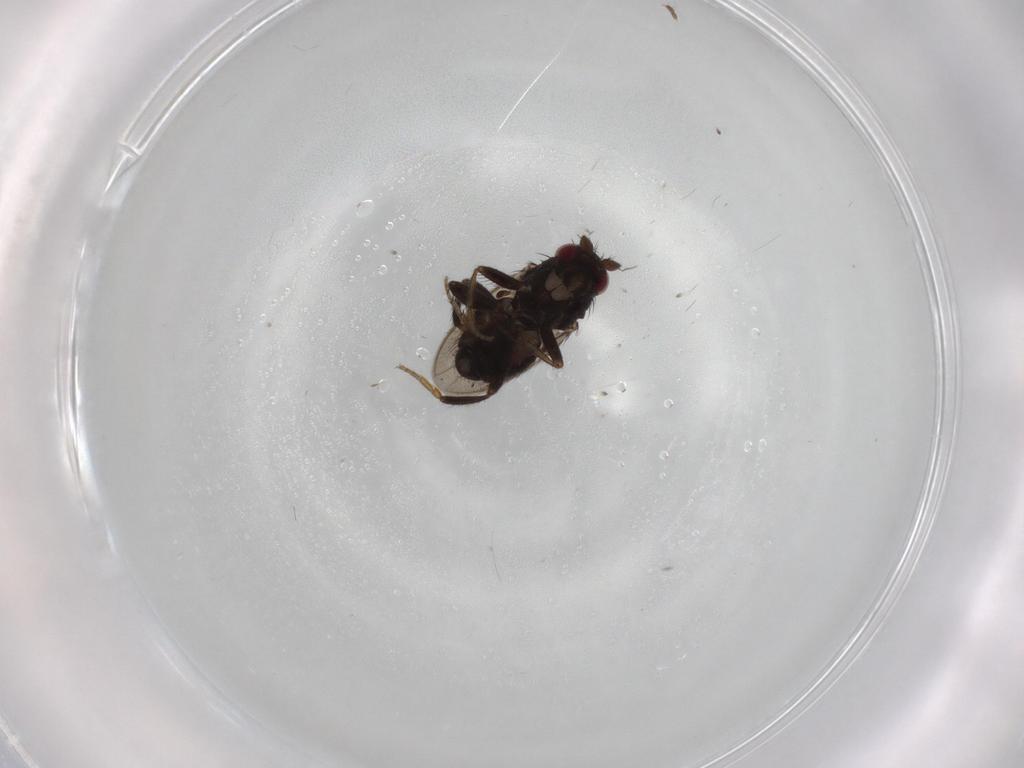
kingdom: Animalia
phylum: Arthropoda
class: Insecta
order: Diptera
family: Sphaeroceridae
